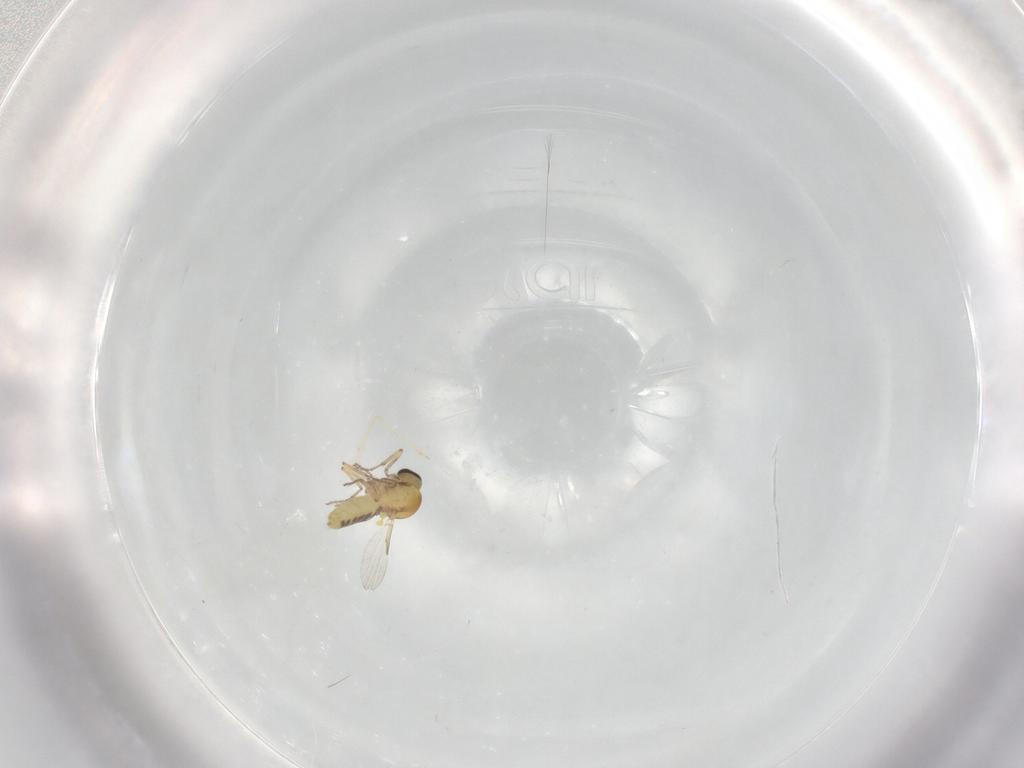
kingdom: Animalia
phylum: Arthropoda
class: Insecta
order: Diptera
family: Ceratopogonidae
